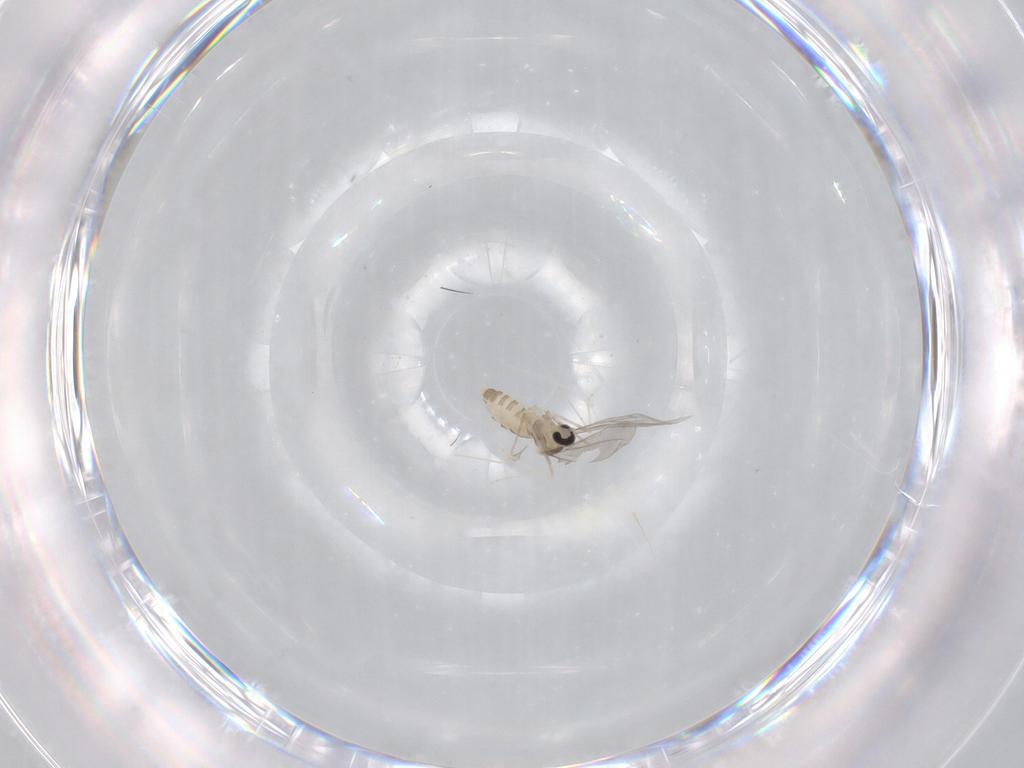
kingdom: Animalia
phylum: Arthropoda
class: Insecta
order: Diptera
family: Cecidomyiidae
